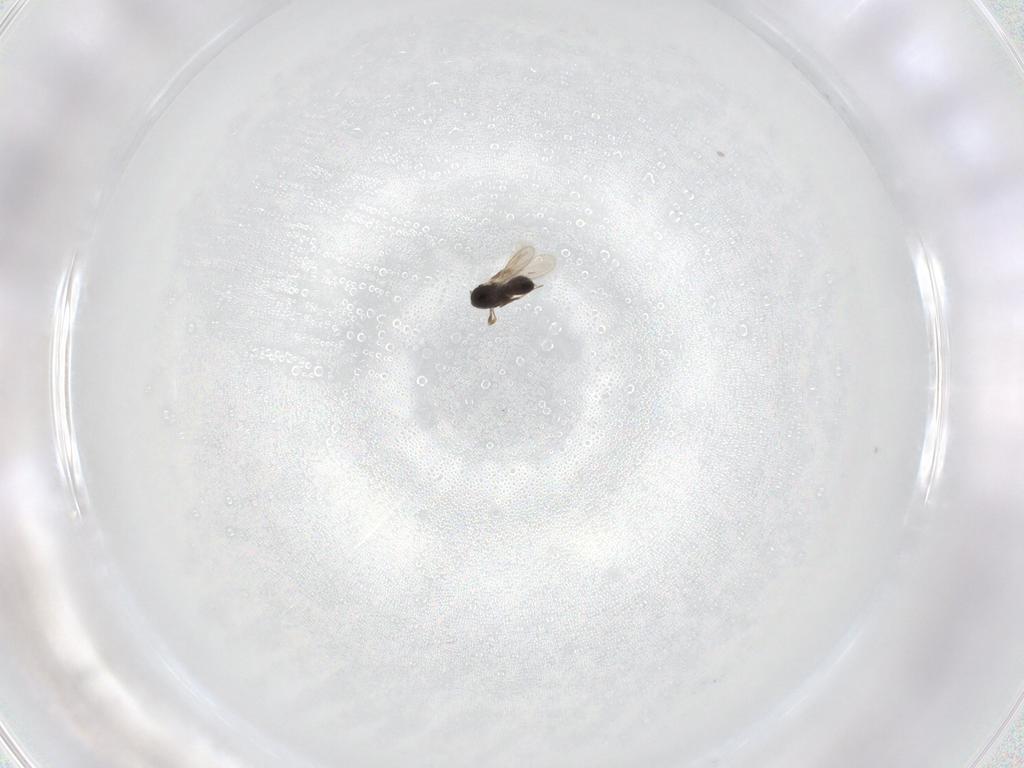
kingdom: Animalia
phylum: Arthropoda
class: Insecta
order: Hymenoptera
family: Scelionidae
